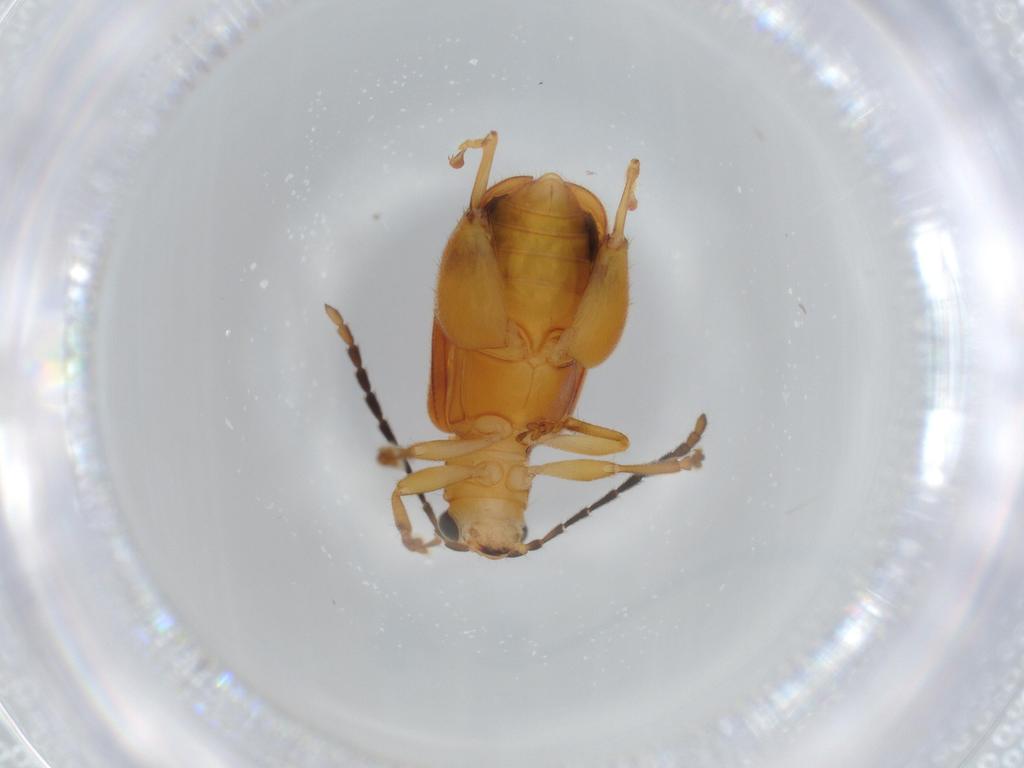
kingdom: Animalia
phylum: Arthropoda
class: Insecta
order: Coleoptera
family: Chrysomelidae
